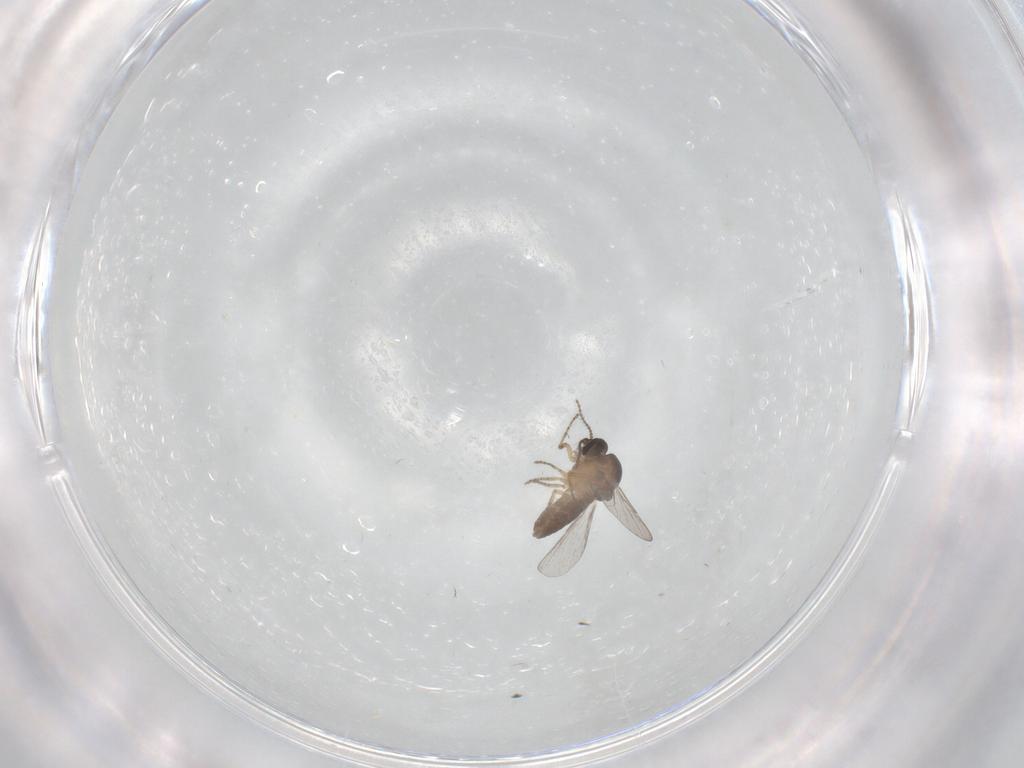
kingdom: Animalia
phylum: Arthropoda
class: Insecta
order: Diptera
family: Ceratopogonidae
